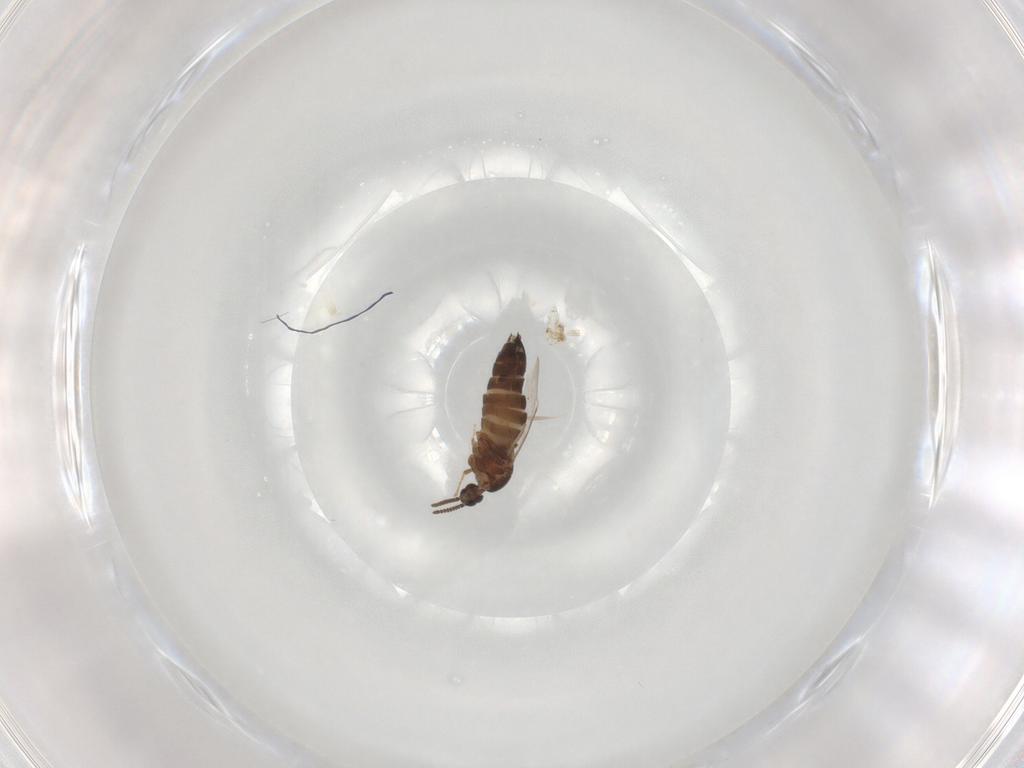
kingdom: Animalia
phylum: Arthropoda
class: Insecta
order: Diptera
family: Scatopsidae
